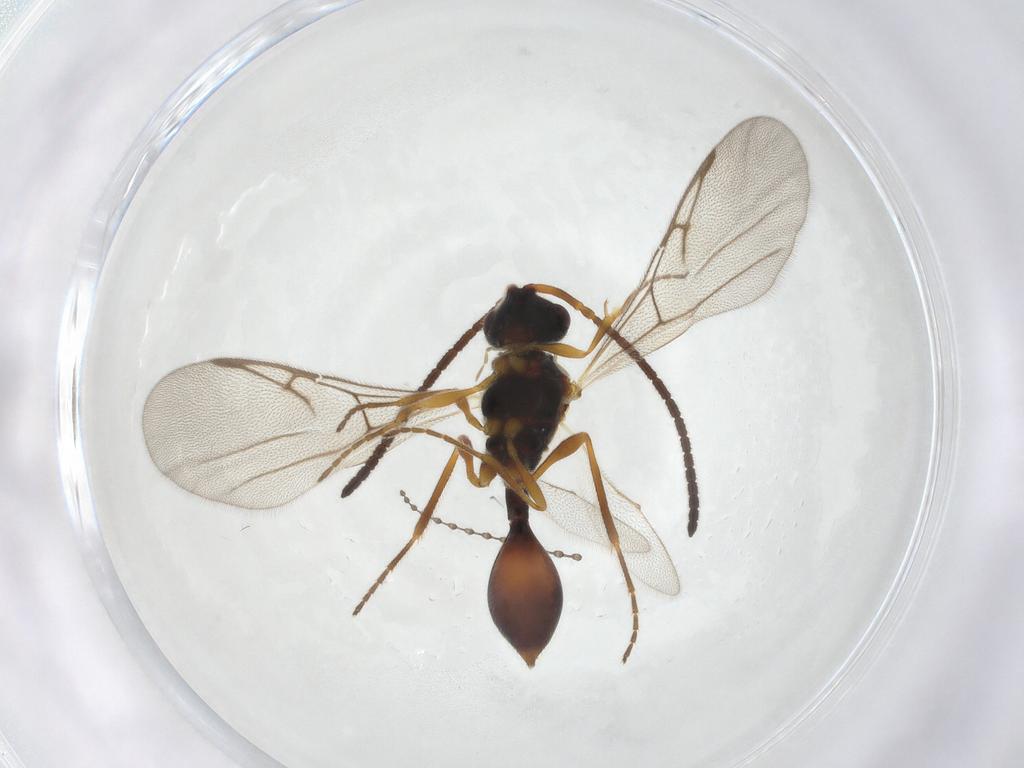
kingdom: Animalia
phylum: Arthropoda
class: Insecta
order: Hymenoptera
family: Diapriidae
